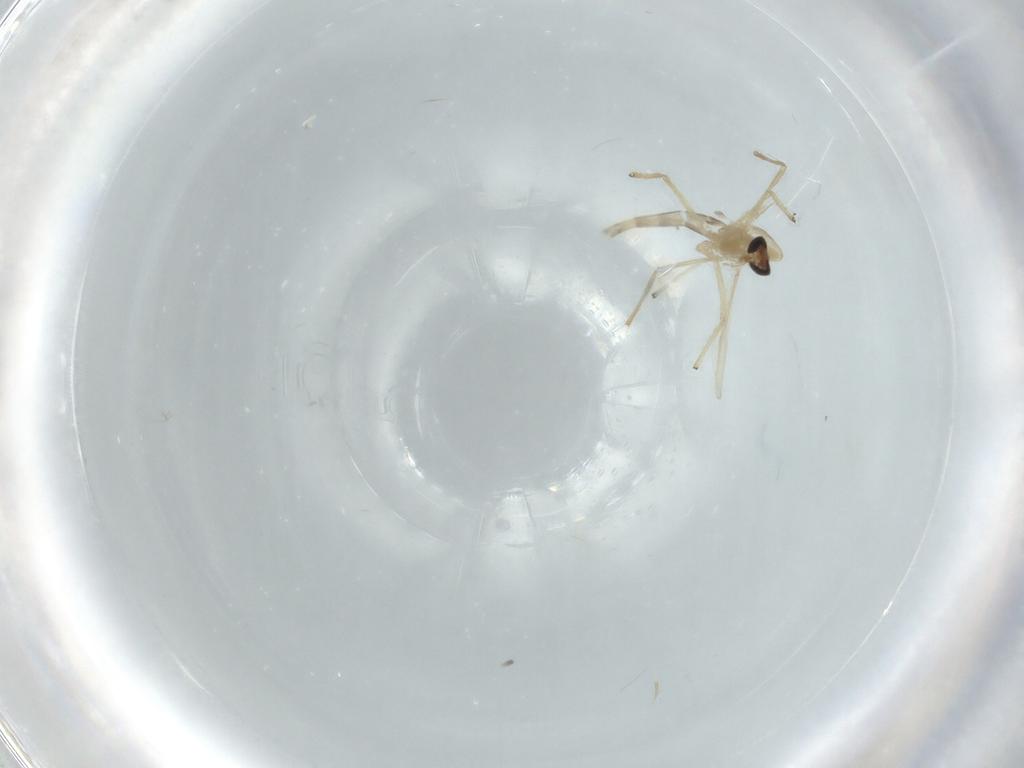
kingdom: Animalia
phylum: Arthropoda
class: Insecta
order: Diptera
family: Chironomidae
